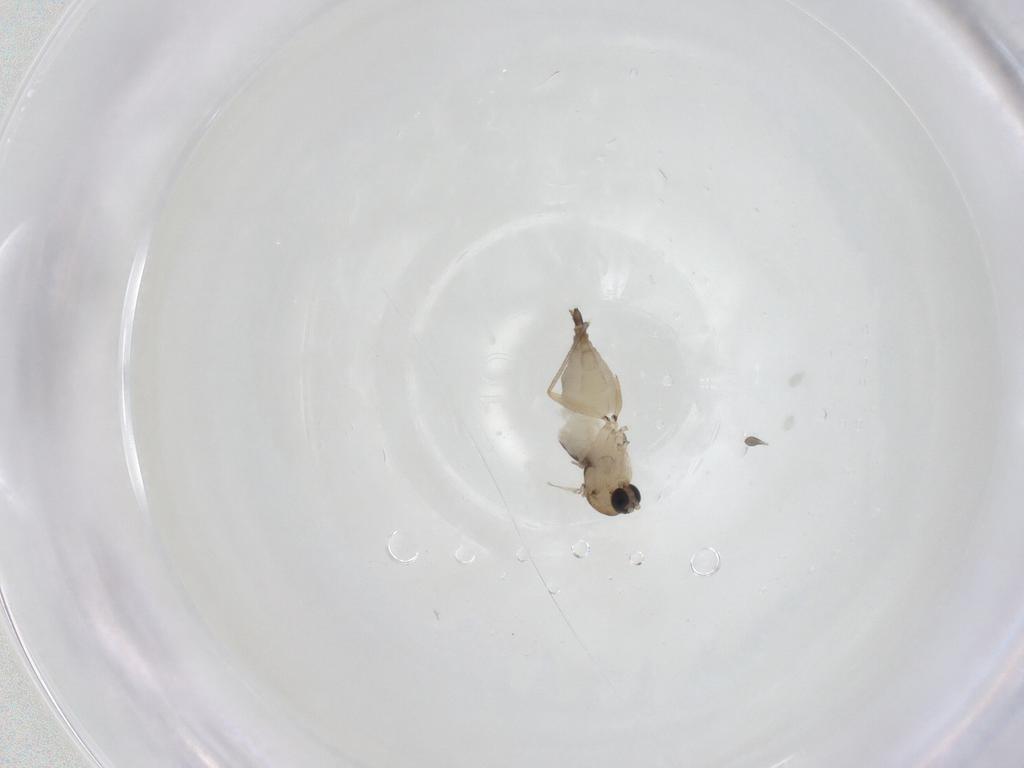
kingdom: Animalia
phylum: Arthropoda
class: Insecta
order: Diptera
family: Sciaridae
